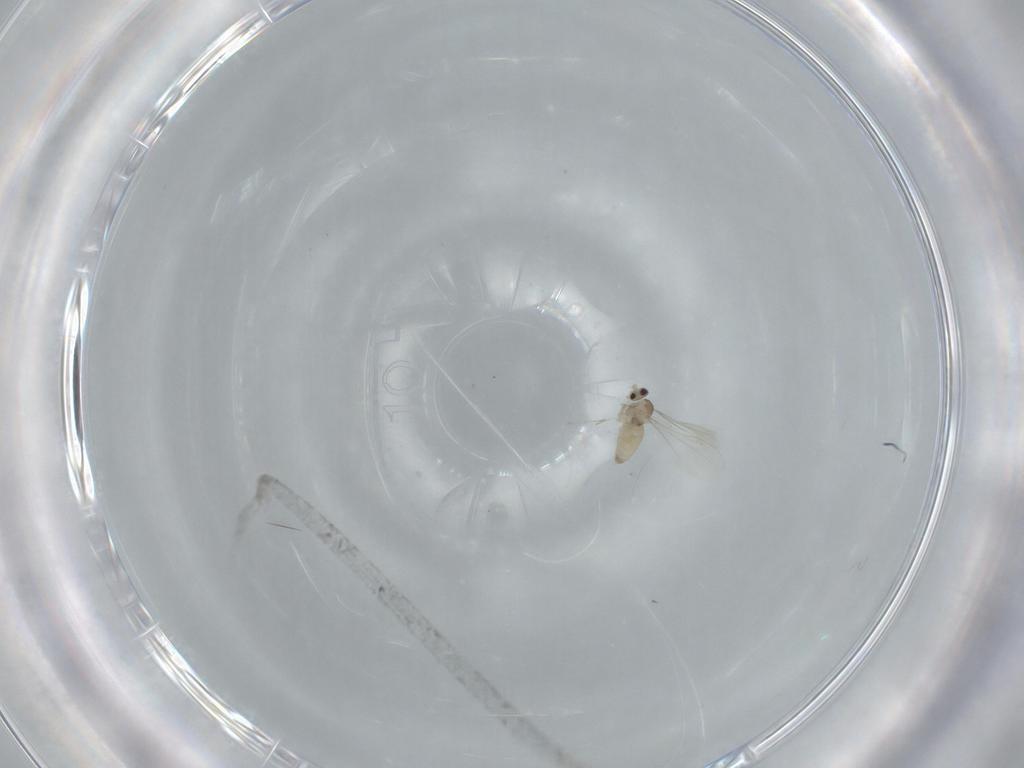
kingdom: Animalia
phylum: Arthropoda
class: Insecta
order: Diptera
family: Cecidomyiidae
